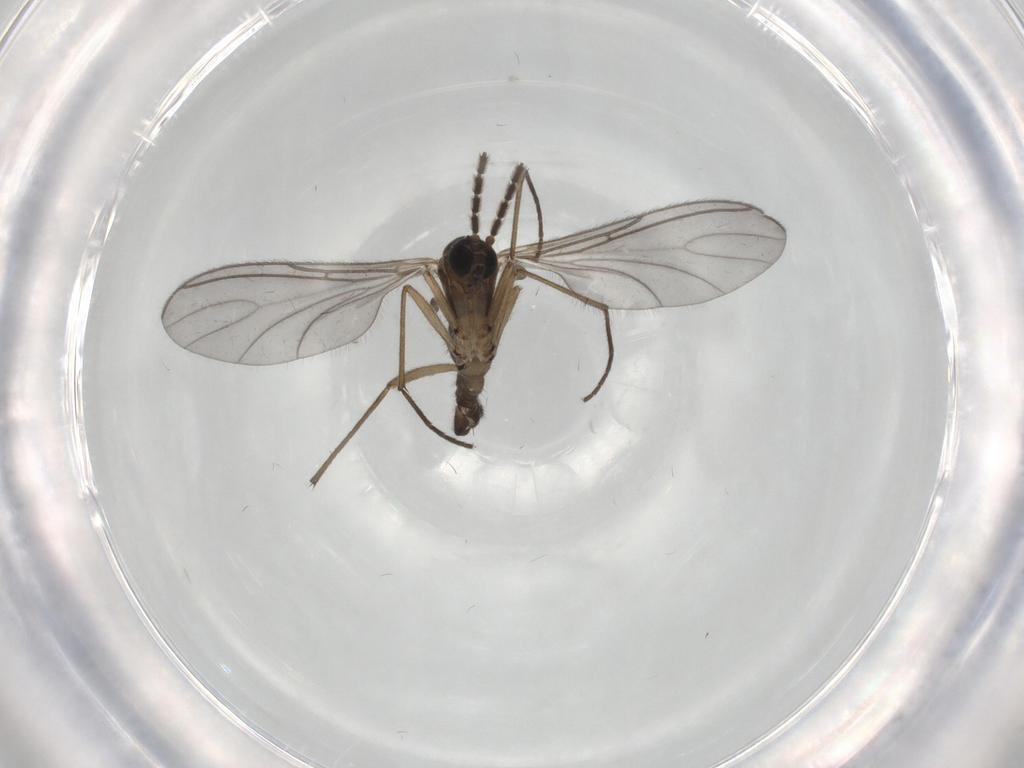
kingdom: Animalia
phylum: Arthropoda
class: Insecta
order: Diptera
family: Sciaridae
